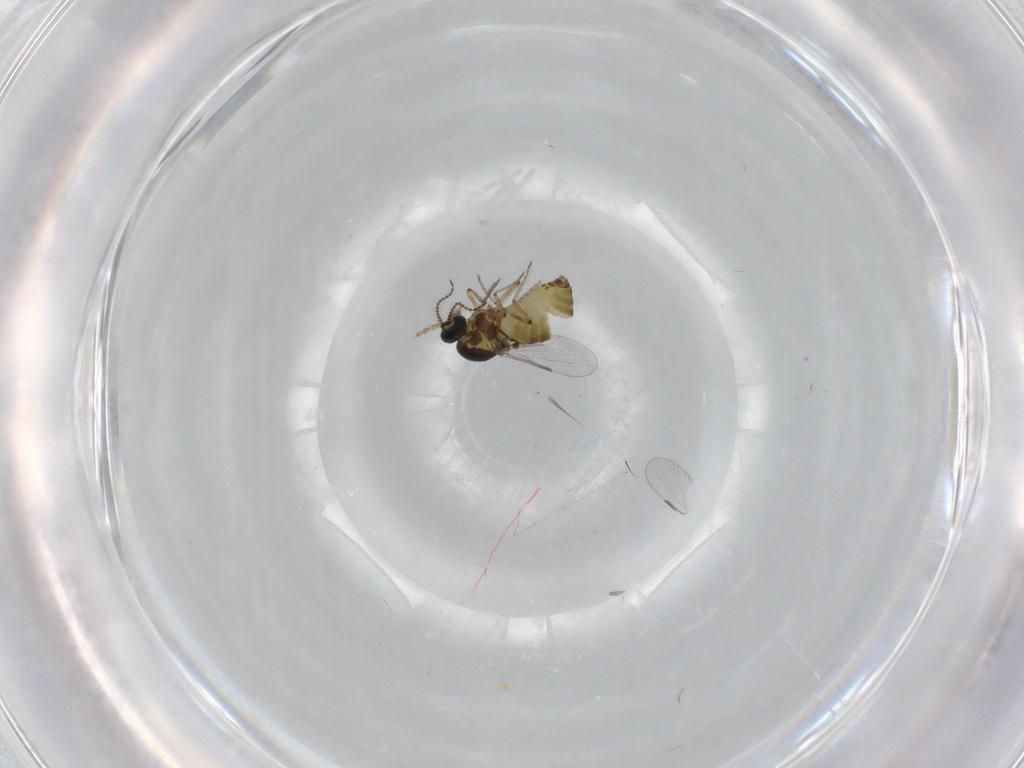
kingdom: Animalia
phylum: Arthropoda
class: Insecta
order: Diptera
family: Ceratopogonidae
